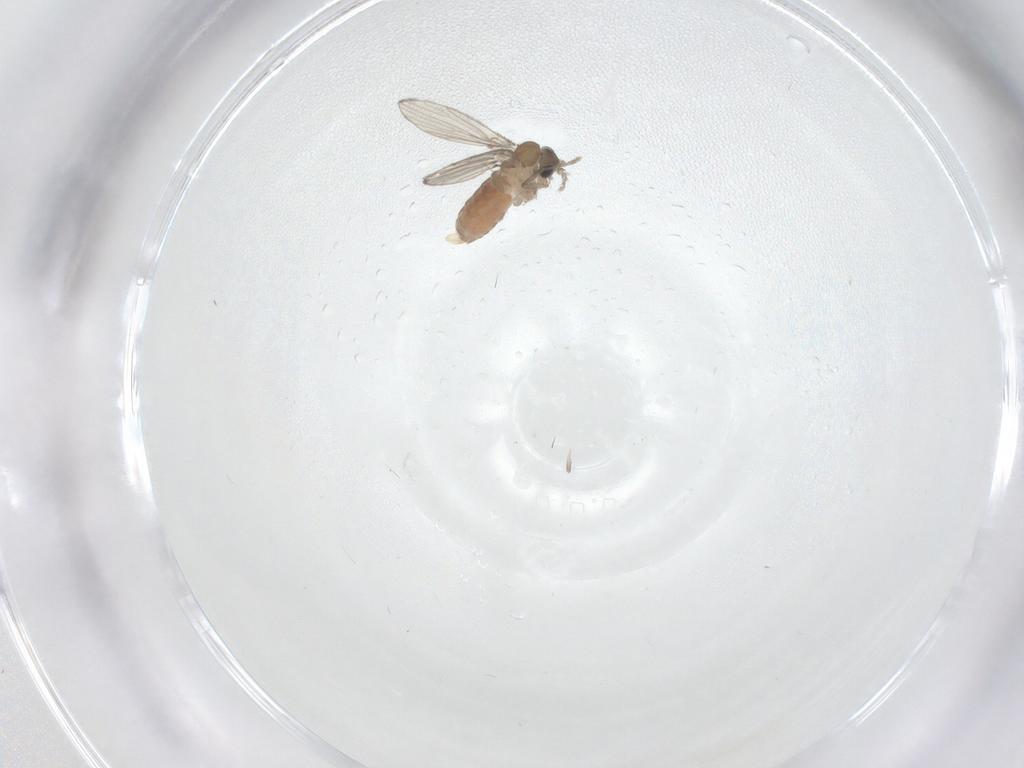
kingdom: Animalia
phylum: Arthropoda
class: Insecta
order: Diptera
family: Psychodidae
